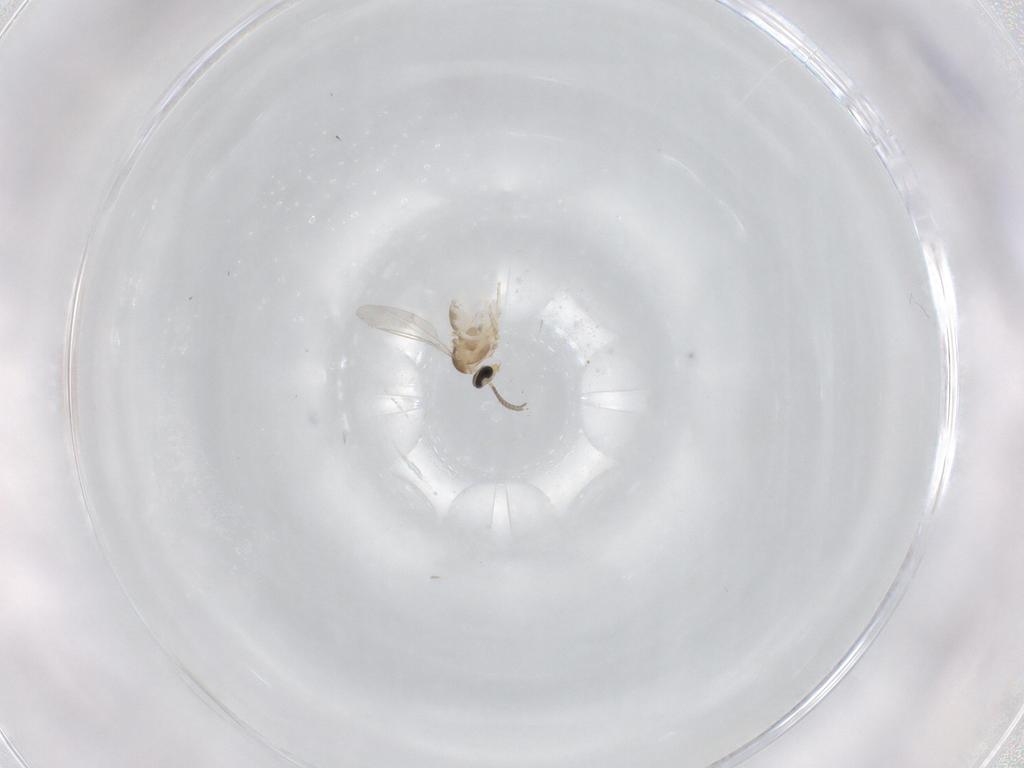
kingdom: Animalia
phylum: Arthropoda
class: Insecta
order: Diptera
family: Cecidomyiidae
